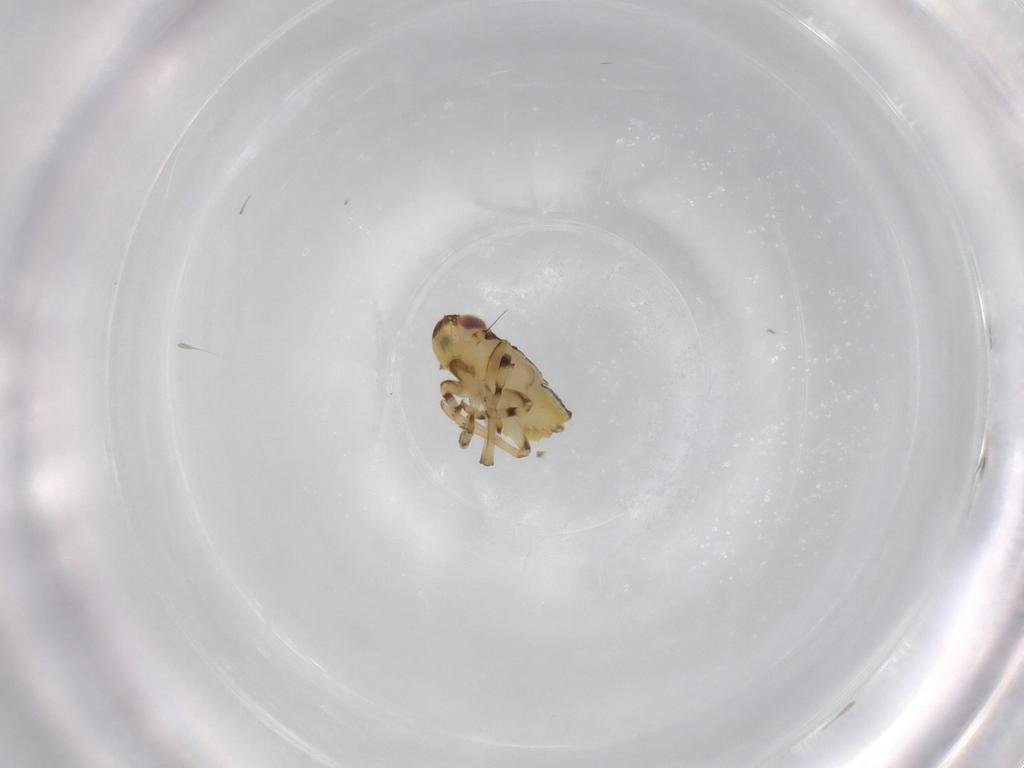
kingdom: Animalia
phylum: Arthropoda
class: Insecta
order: Hemiptera
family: Issidae
